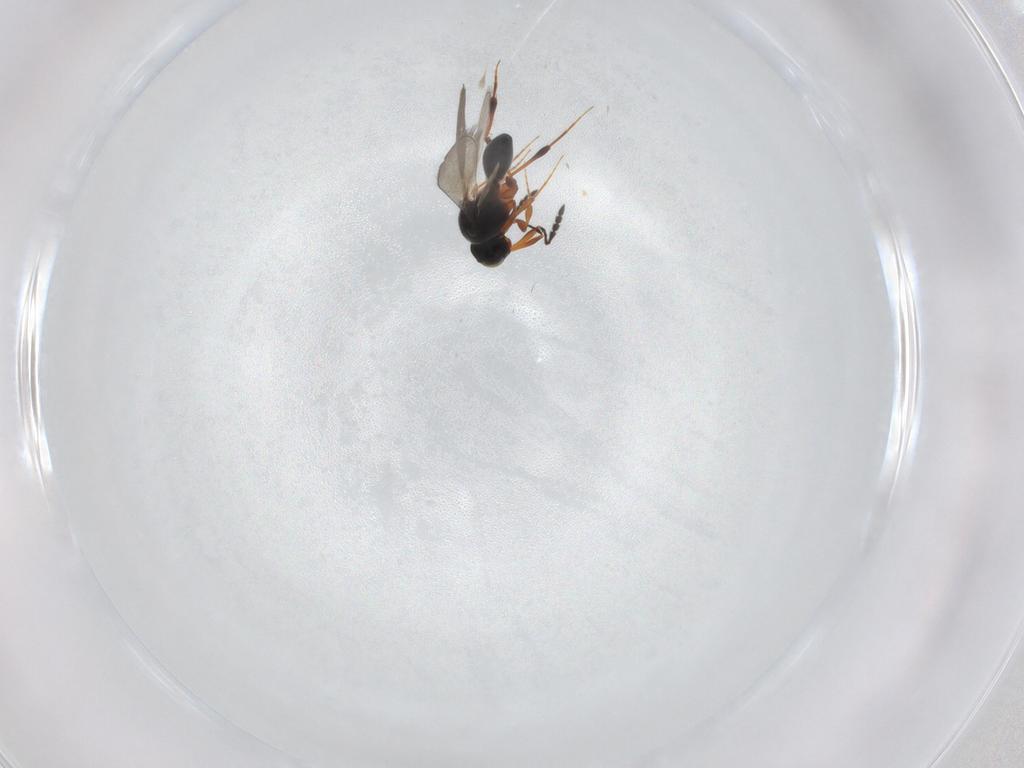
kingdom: Animalia
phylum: Arthropoda
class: Insecta
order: Hymenoptera
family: Platygastridae
